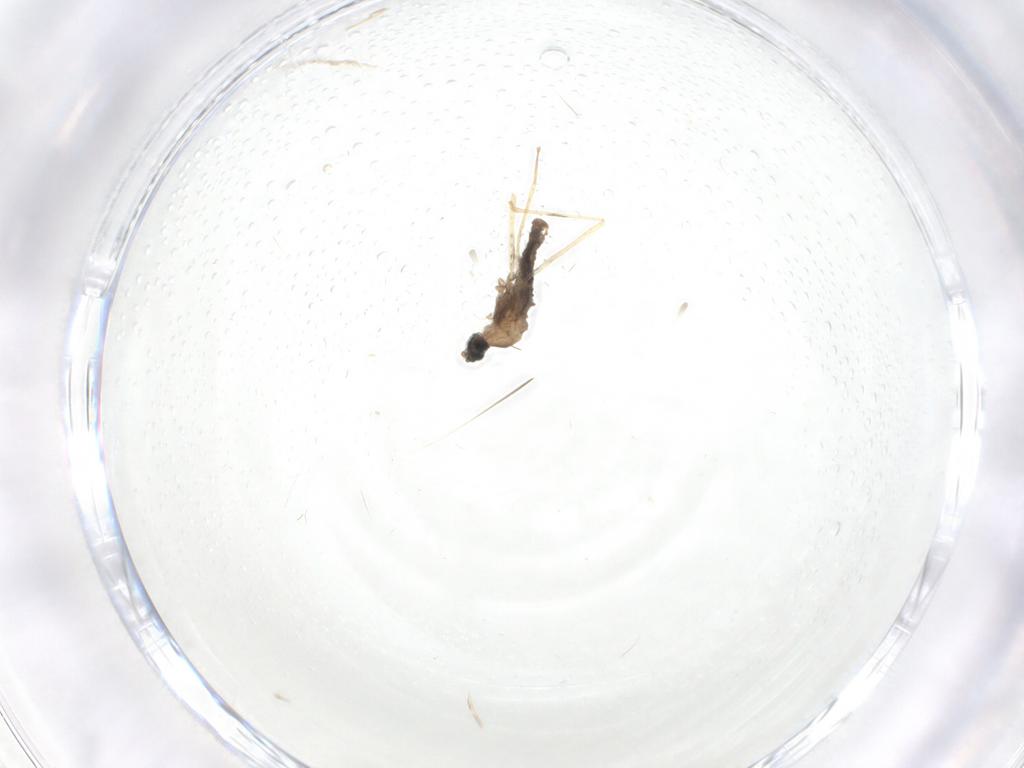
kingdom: Animalia
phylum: Arthropoda
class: Insecta
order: Diptera
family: Cecidomyiidae
